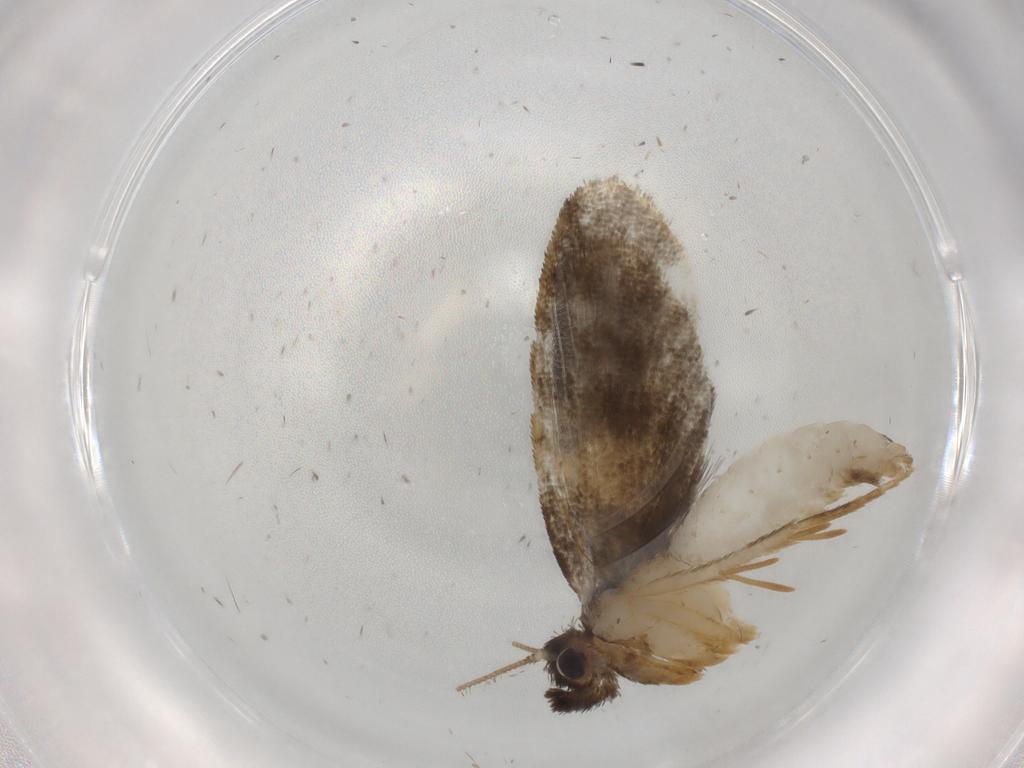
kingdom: Animalia
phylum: Arthropoda
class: Insecta
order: Lepidoptera
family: Psychidae
